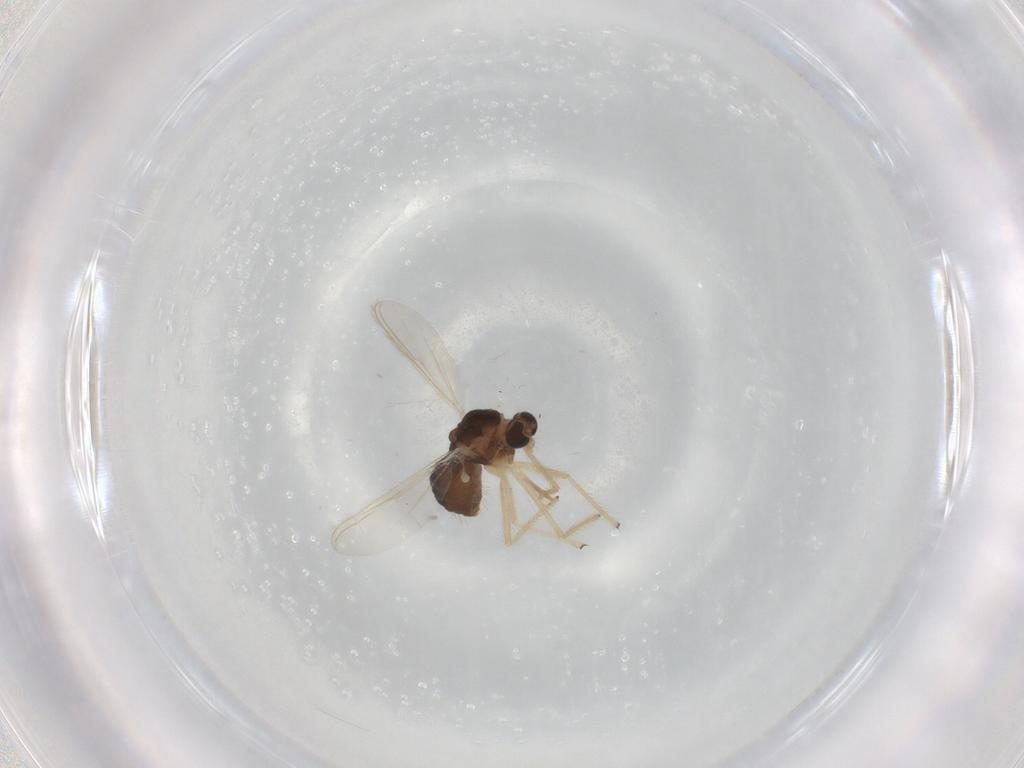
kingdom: Animalia
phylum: Arthropoda
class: Insecta
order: Diptera
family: Chironomidae
